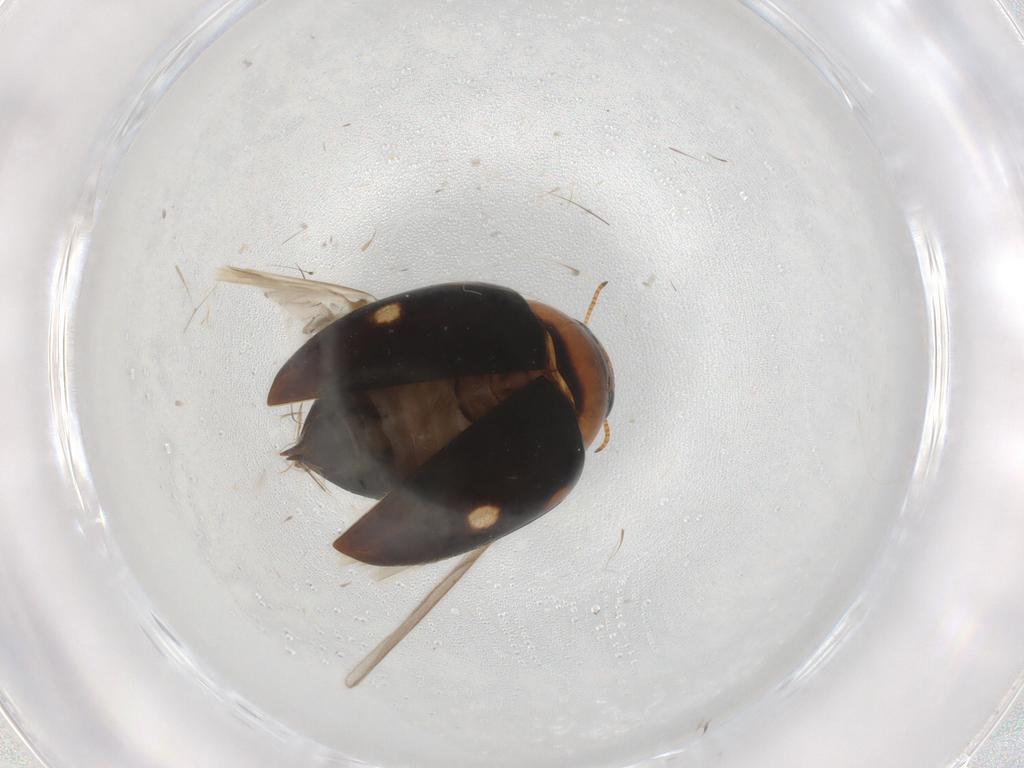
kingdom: Animalia
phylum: Arthropoda
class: Insecta
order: Coleoptera
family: Noteridae
